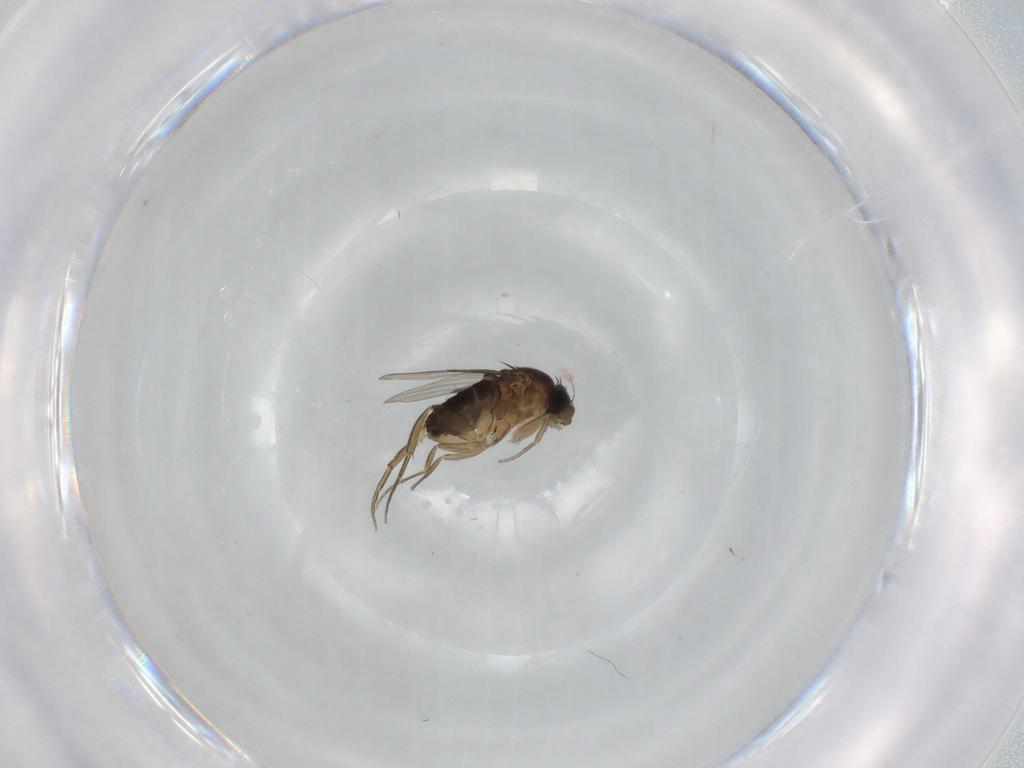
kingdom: Animalia
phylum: Arthropoda
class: Insecta
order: Diptera
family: Phoridae
